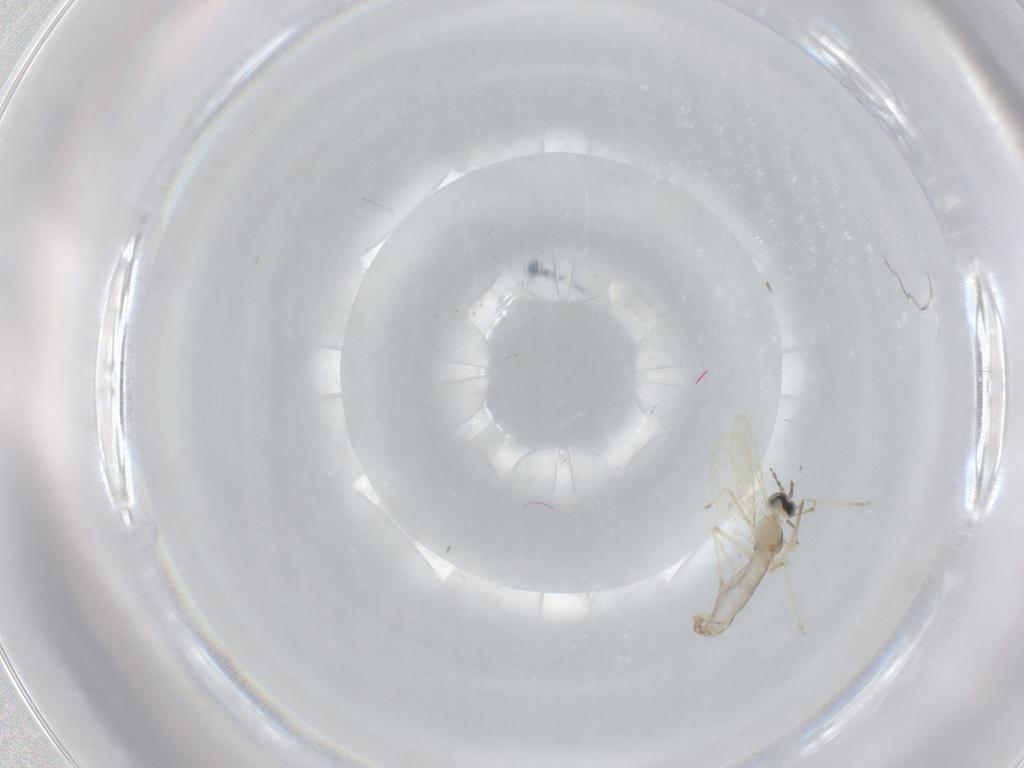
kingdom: Animalia
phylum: Arthropoda
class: Insecta
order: Diptera
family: Cecidomyiidae
